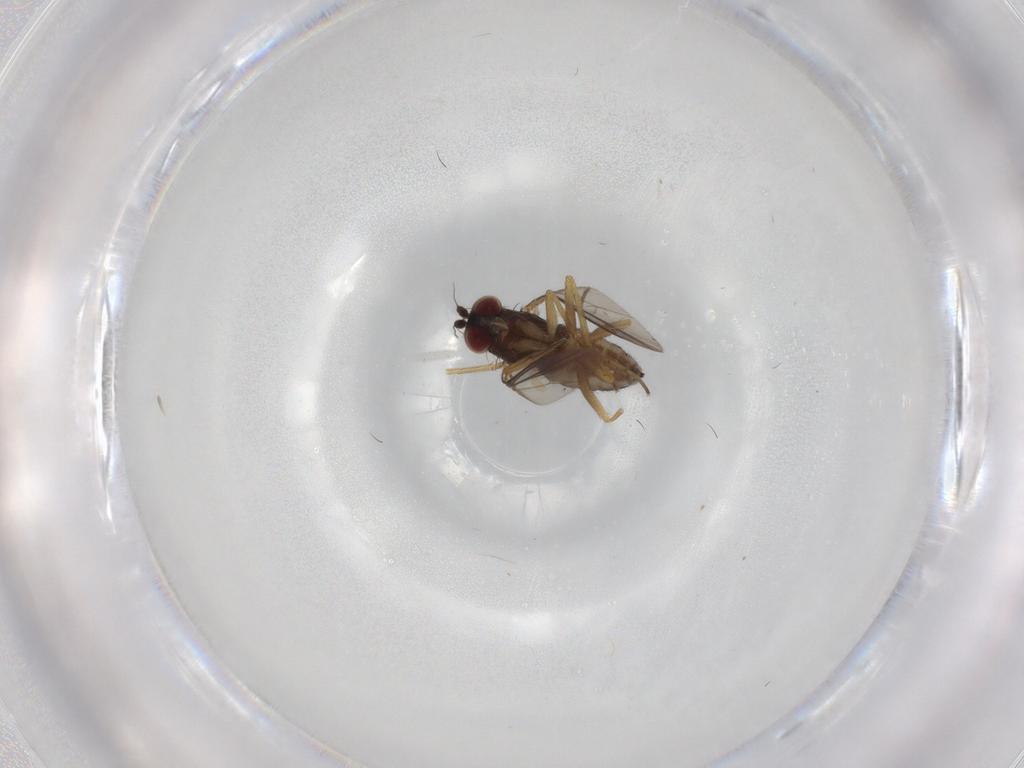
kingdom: Animalia
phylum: Arthropoda
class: Insecta
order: Diptera
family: Dolichopodidae
